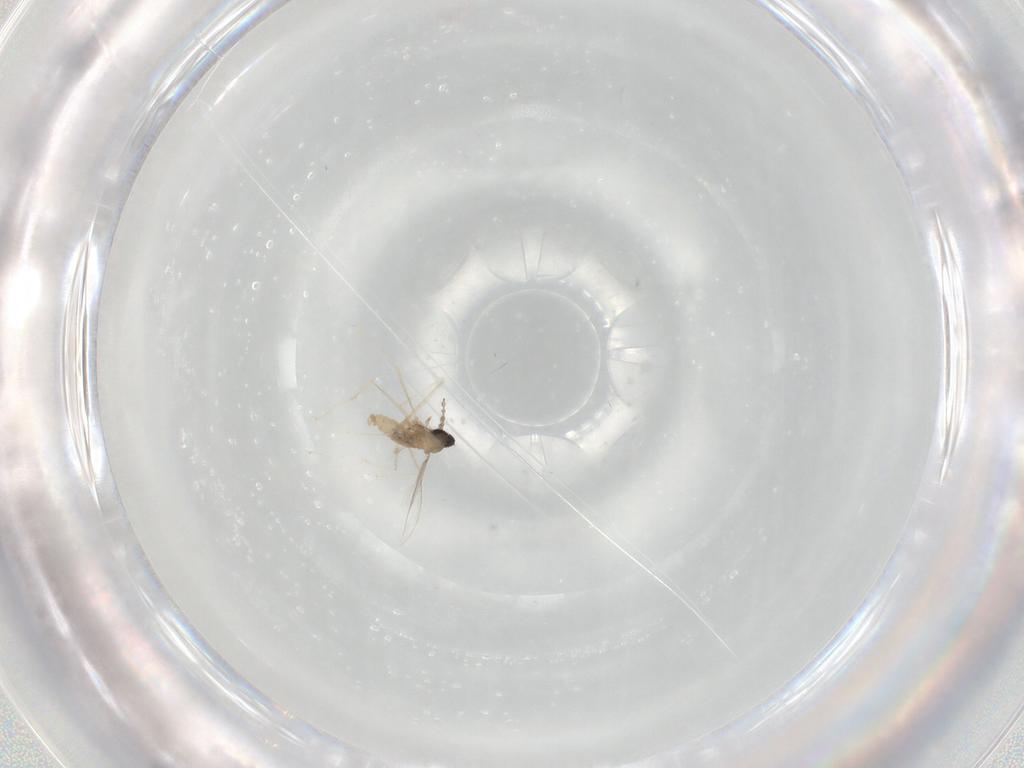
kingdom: Animalia
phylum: Arthropoda
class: Insecta
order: Diptera
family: Cecidomyiidae
